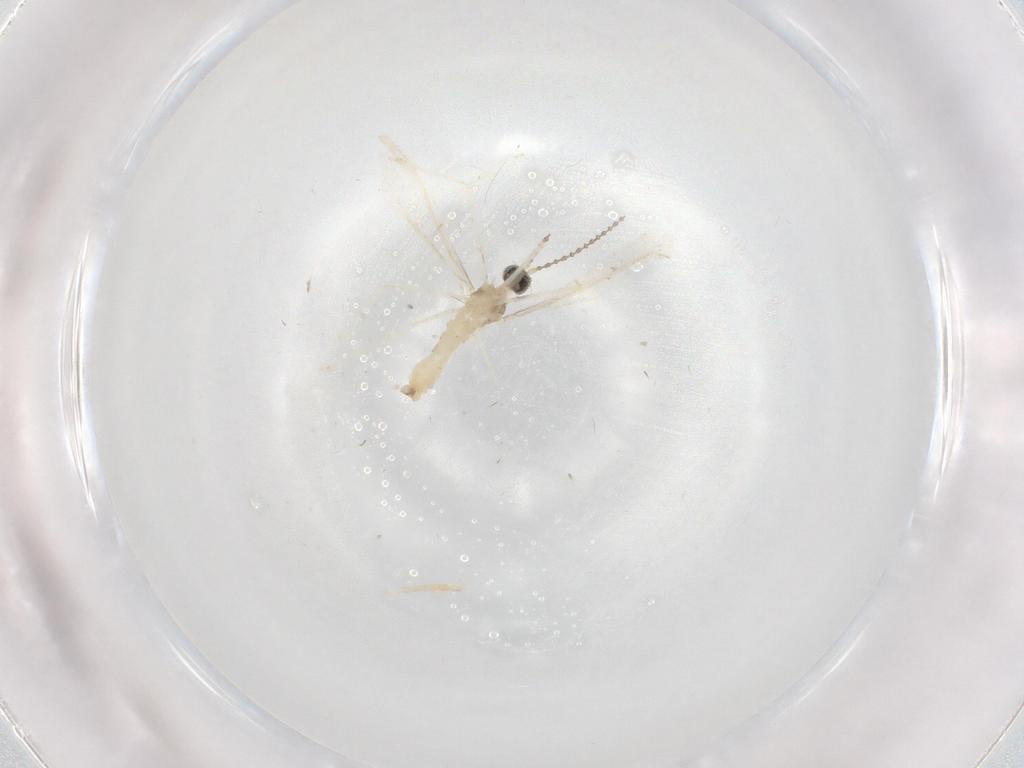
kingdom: Animalia
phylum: Arthropoda
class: Insecta
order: Diptera
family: Cecidomyiidae
